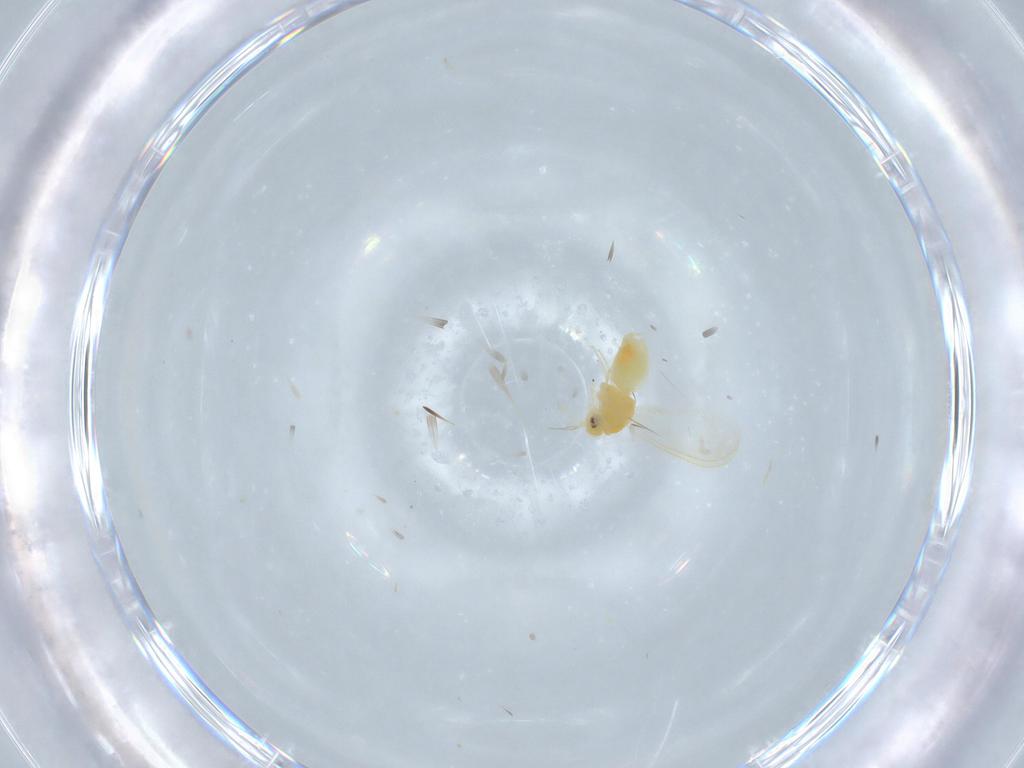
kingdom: Animalia
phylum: Arthropoda
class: Insecta
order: Hemiptera
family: Aleyrodidae
